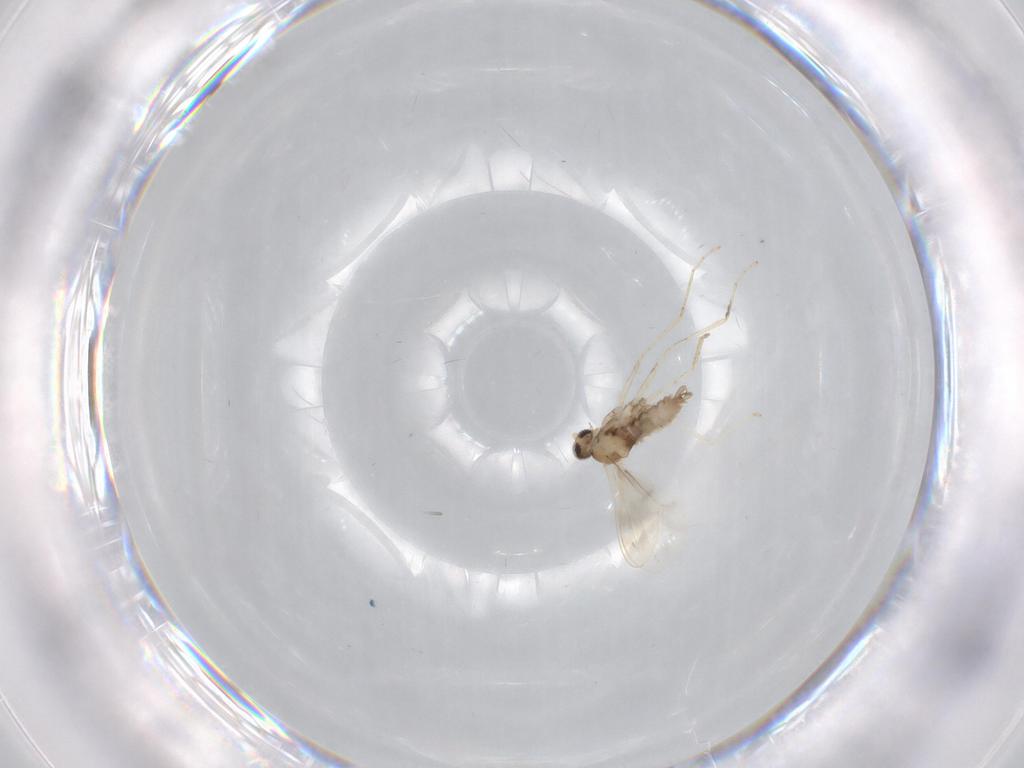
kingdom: Animalia
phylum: Arthropoda
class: Insecta
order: Diptera
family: Cecidomyiidae
